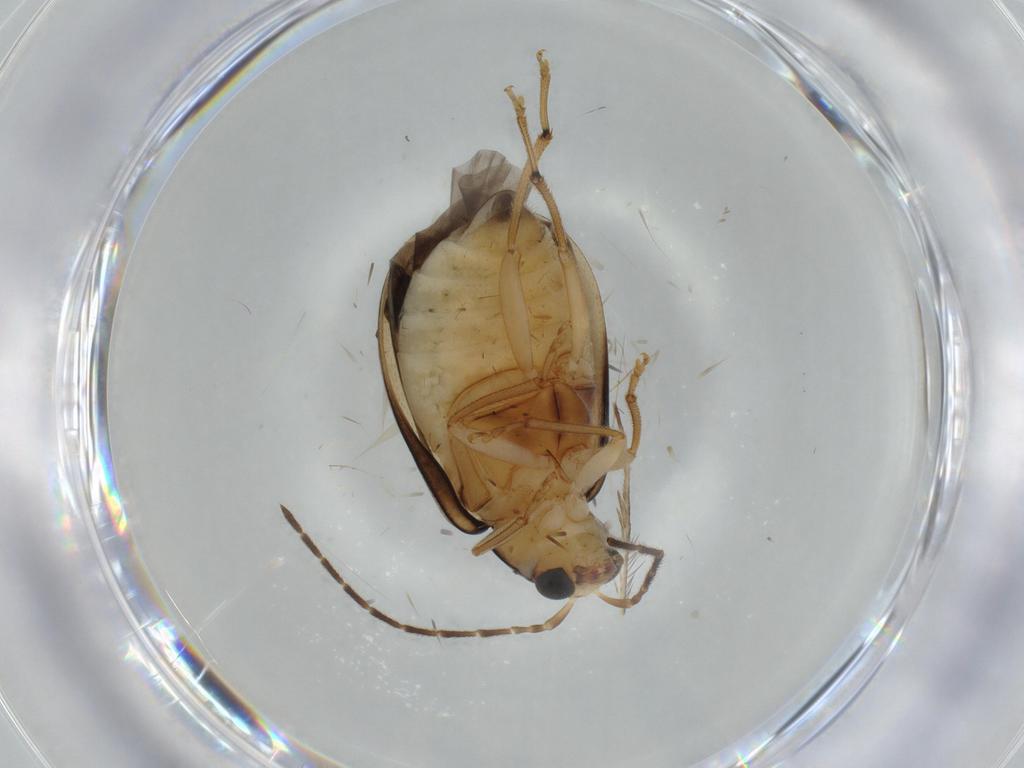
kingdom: Animalia
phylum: Arthropoda
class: Insecta
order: Coleoptera
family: Chrysomelidae
